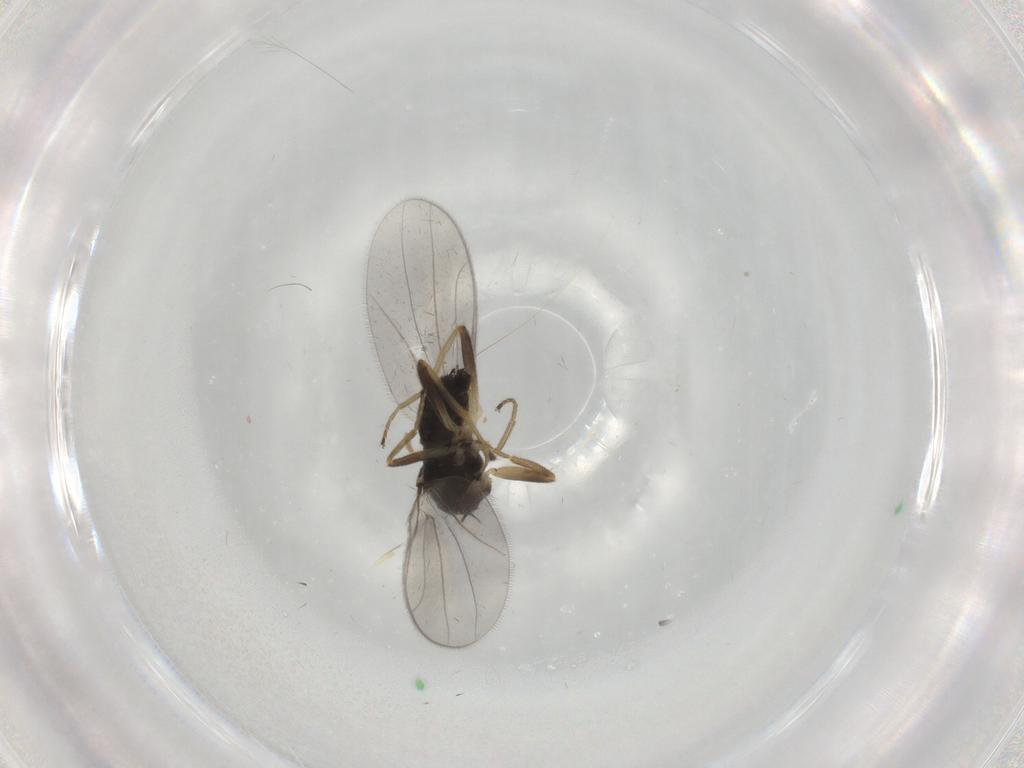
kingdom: Animalia
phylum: Arthropoda
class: Insecta
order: Diptera
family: Hybotidae
